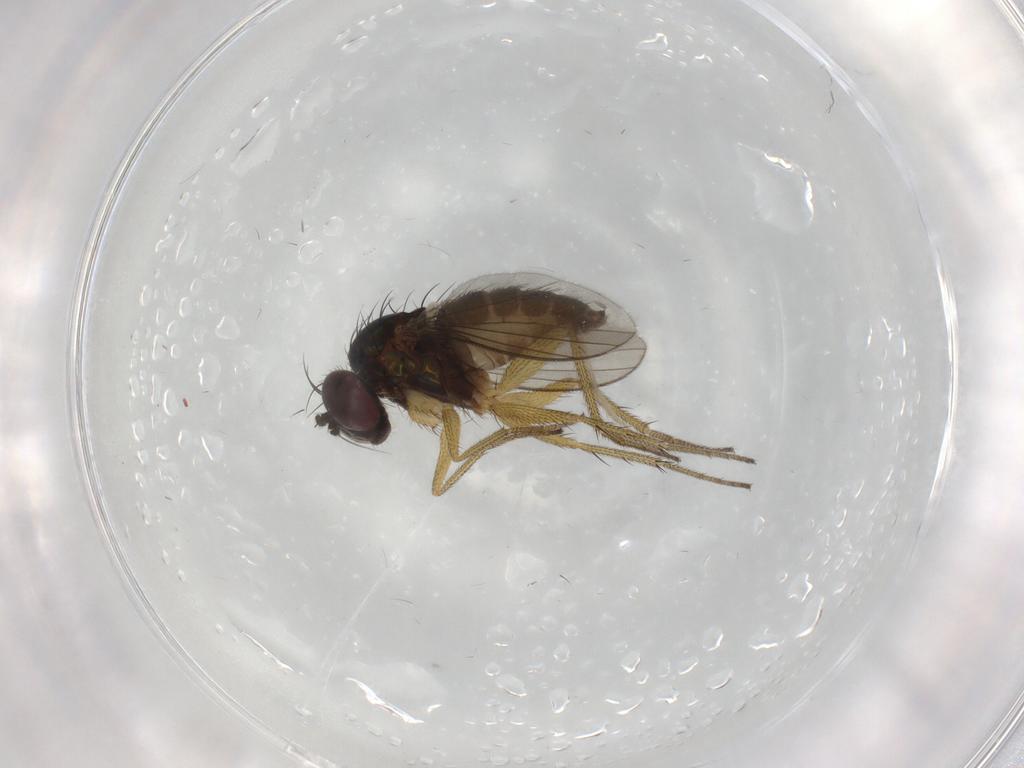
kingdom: Animalia
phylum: Arthropoda
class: Insecta
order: Diptera
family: Dolichopodidae
